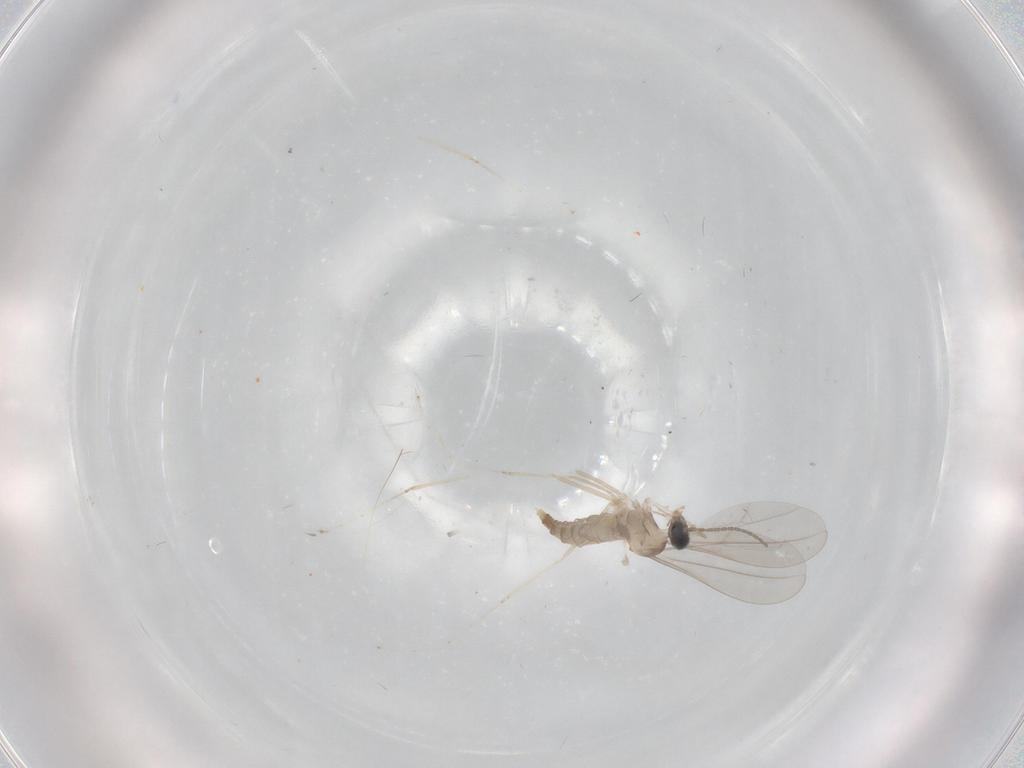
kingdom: Animalia
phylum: Arthropoda
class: Insecta
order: Diptera
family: Cecidomyiidae
